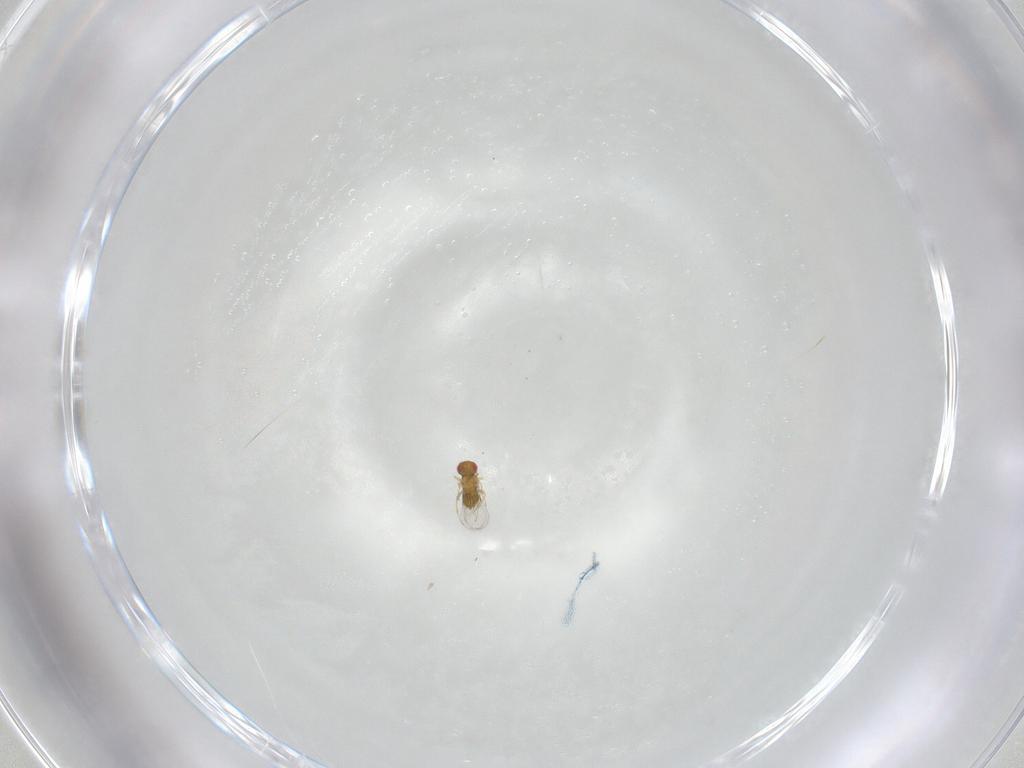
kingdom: Animalia
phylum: Arthropoda
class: Insecta
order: Hymenoptera
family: Trichogrammatidae
